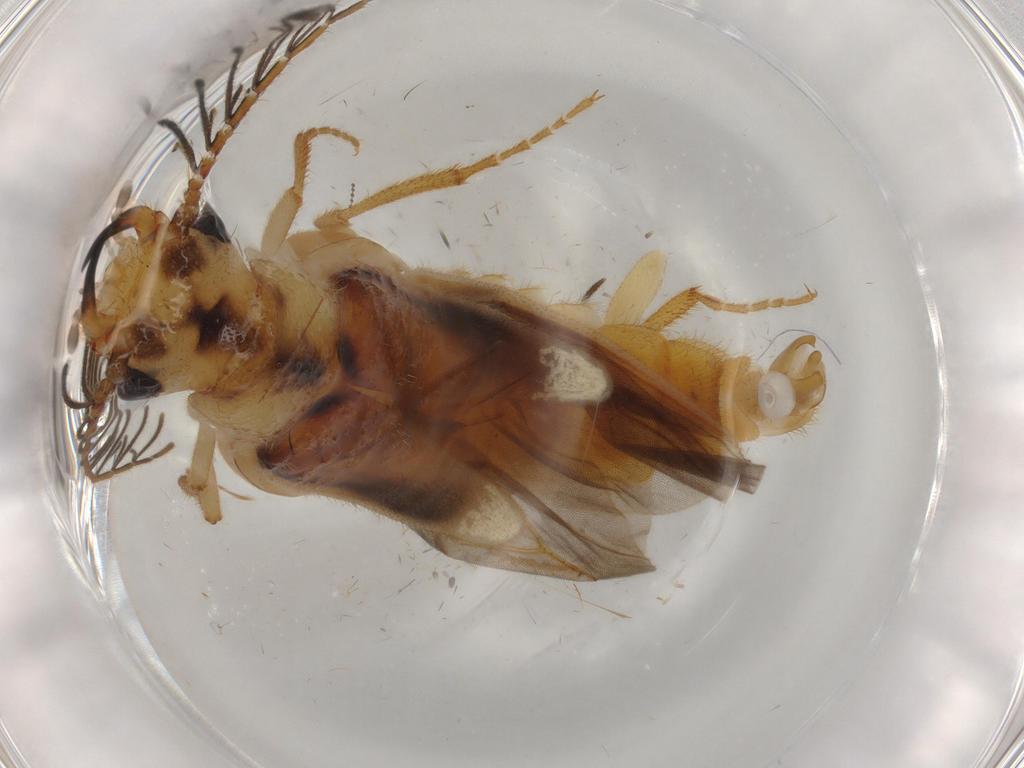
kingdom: Animalia
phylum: Arthropoda
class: Insecta
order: Coleoptera
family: Phengodidae
